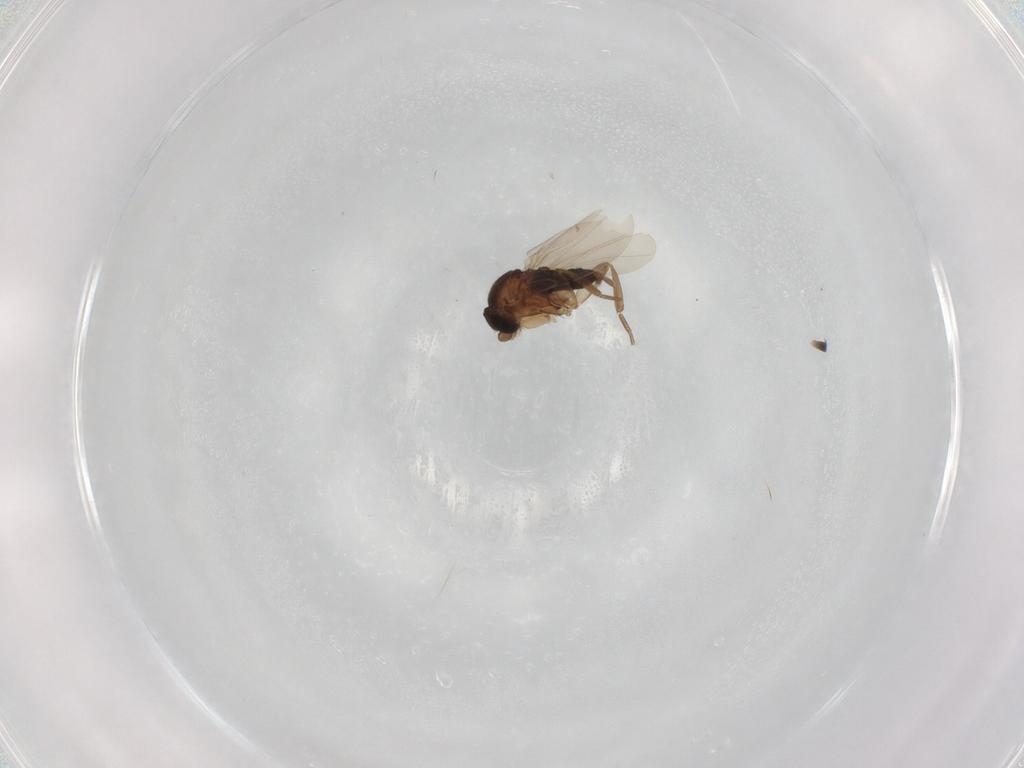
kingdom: Animalia
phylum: Arthropoda
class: Insecta
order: Diptera
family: Phoridae
